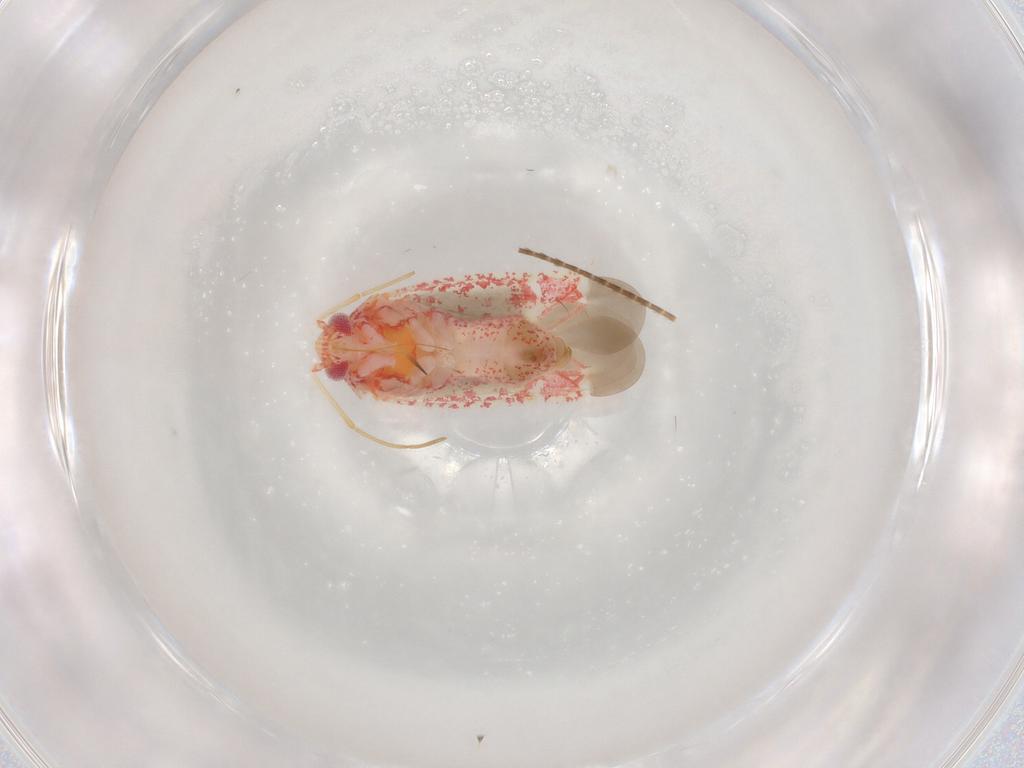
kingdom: Animalia
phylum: Arthropoda
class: Insecta
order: Hemiptera
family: Miridae
